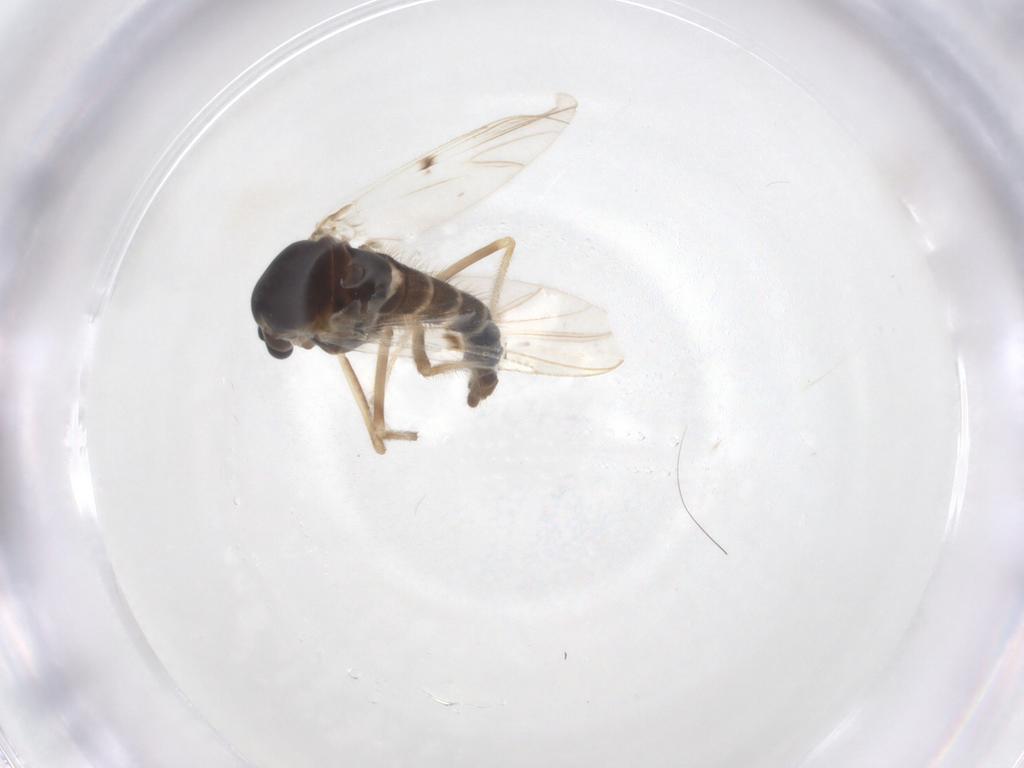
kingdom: Animalia
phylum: Arthropoda
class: Insecta
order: Diptera
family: Chironomidae
